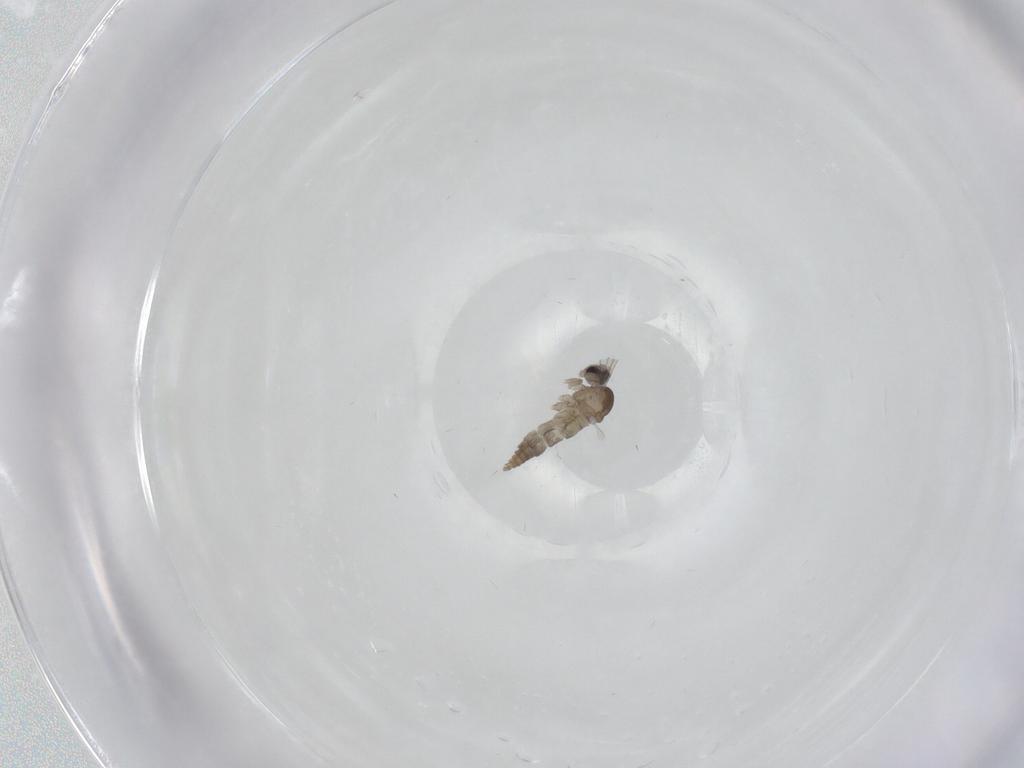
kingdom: Animalia
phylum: Arthropoda
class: Insecta
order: Diptera
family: Cecidomyiidae
